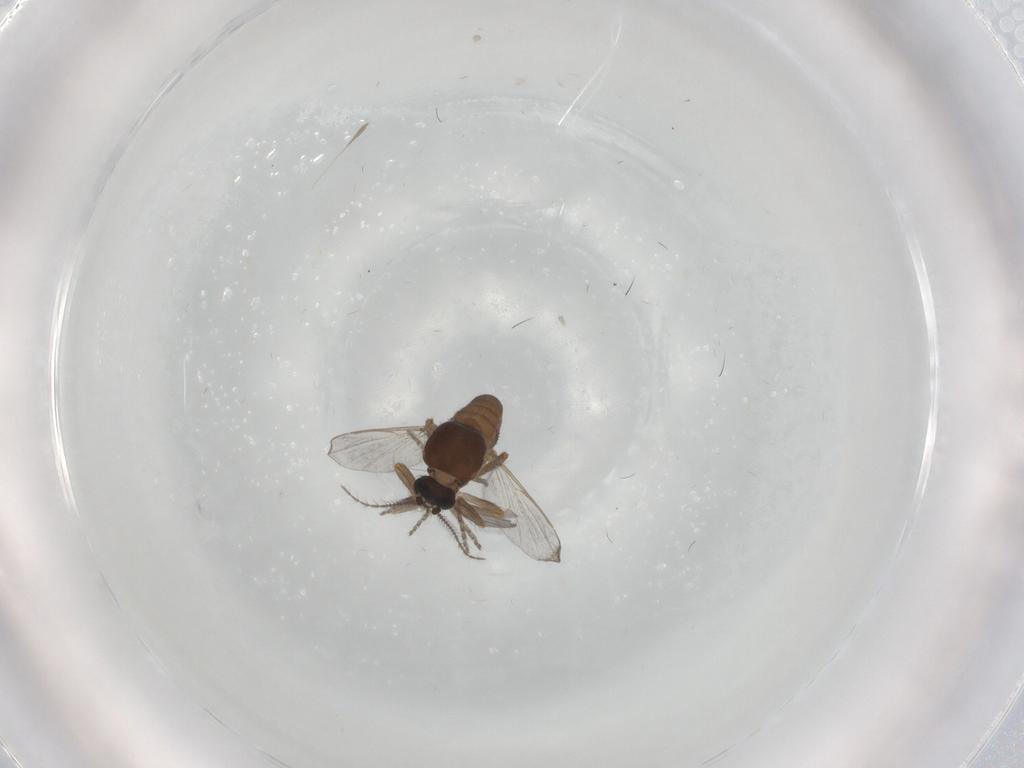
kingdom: Animalia
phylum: Arthropoda
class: Insecta
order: Diptera
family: Ceratopogonidae
